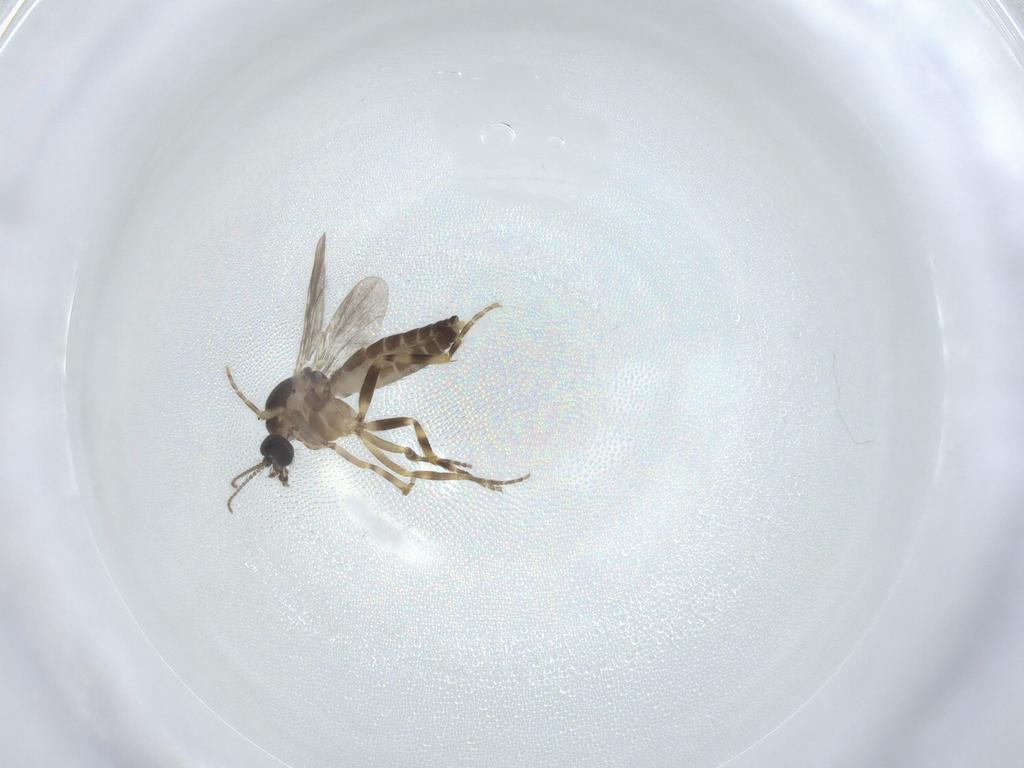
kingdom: Animalia
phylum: Arthropoda
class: Insecta
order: Diptera
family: Ceratopogonidae
